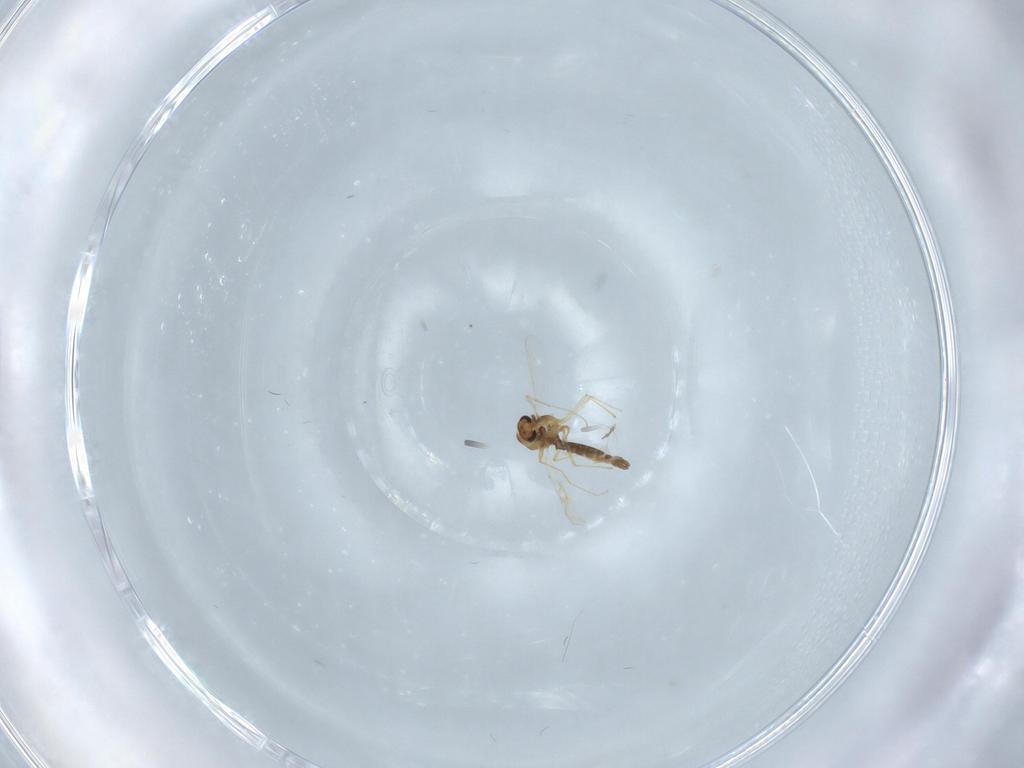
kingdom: Animalia
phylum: Arthropoda
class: Insecta
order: Diptera
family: Chironomidae
